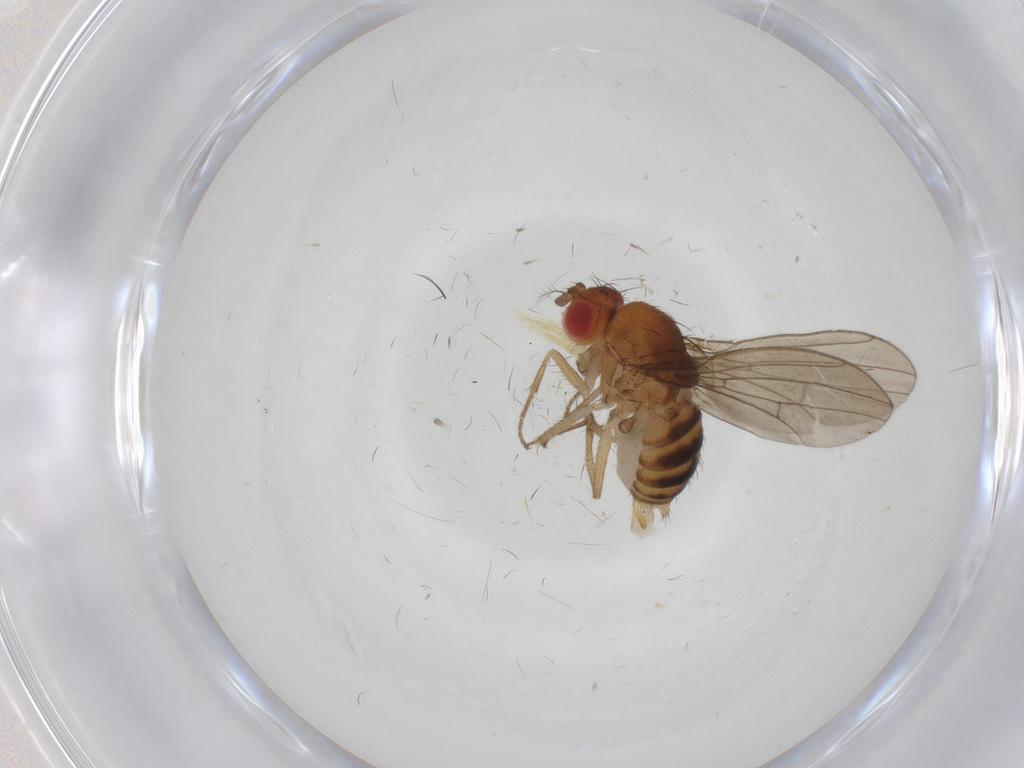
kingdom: Animalia
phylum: Arthropoda
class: Insecta
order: Diptera
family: Drosophilidae
